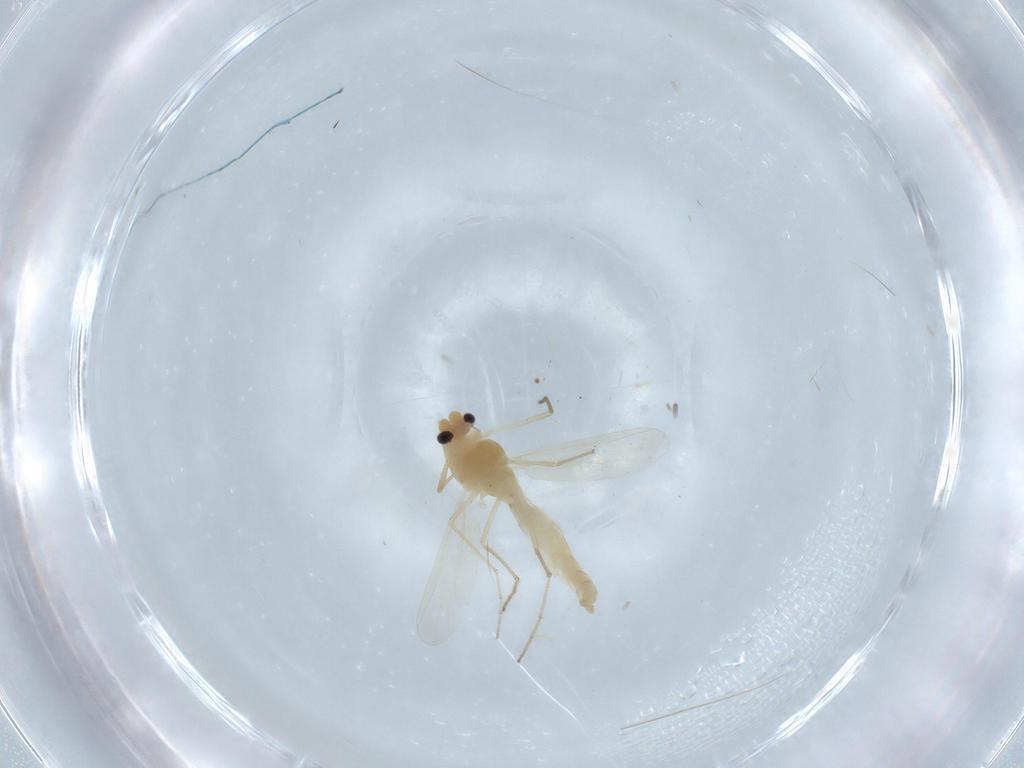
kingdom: Animalia
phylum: Arthropoda
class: Insecta
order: Diptera
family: Chironomidae
